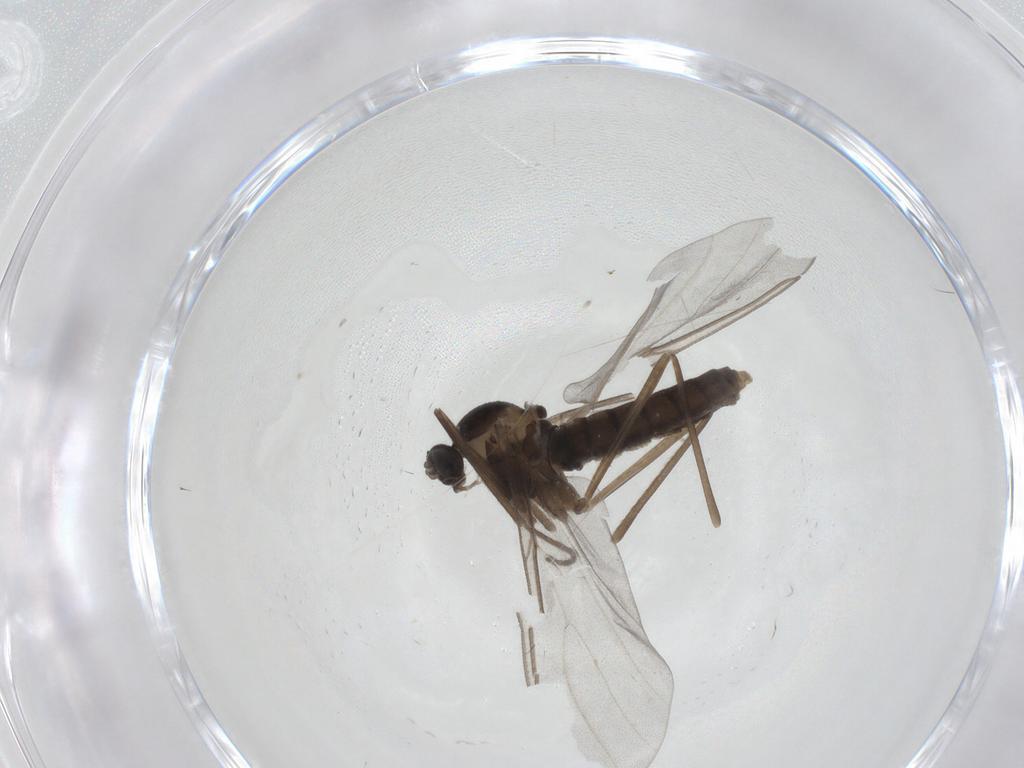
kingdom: Animalia
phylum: Arthropoda
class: Insecta
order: Diptera
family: Cecidomyiidae
